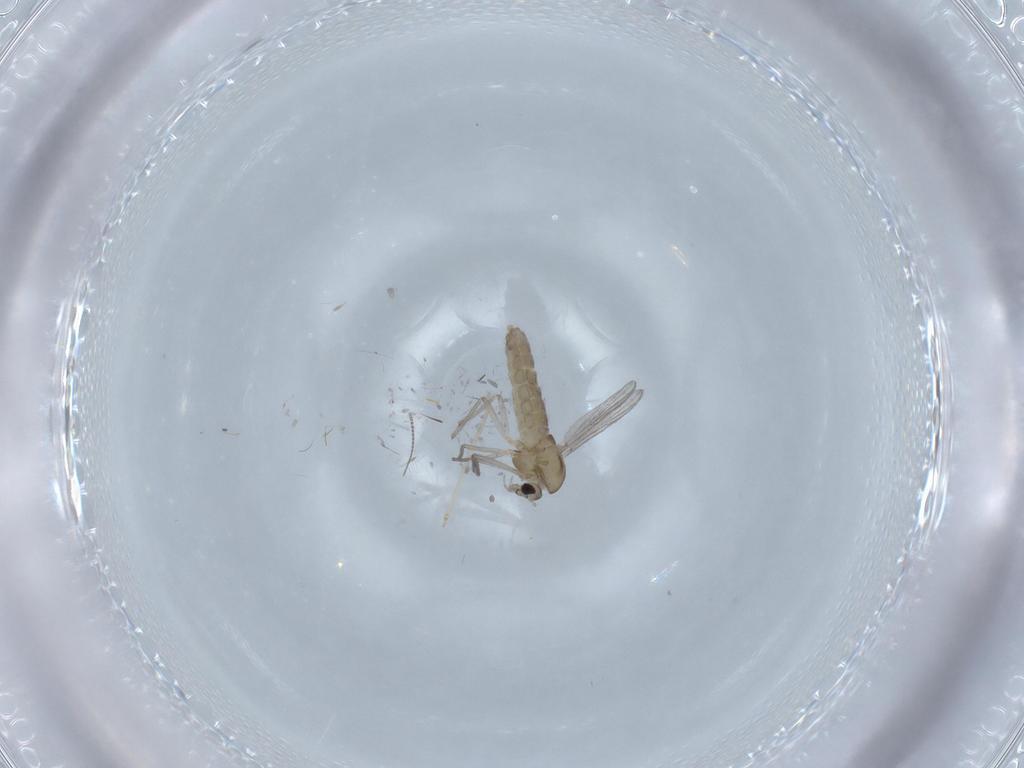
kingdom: Animalia
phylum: Arthropoda
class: Insecta
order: Diptera
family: Chironomidae
